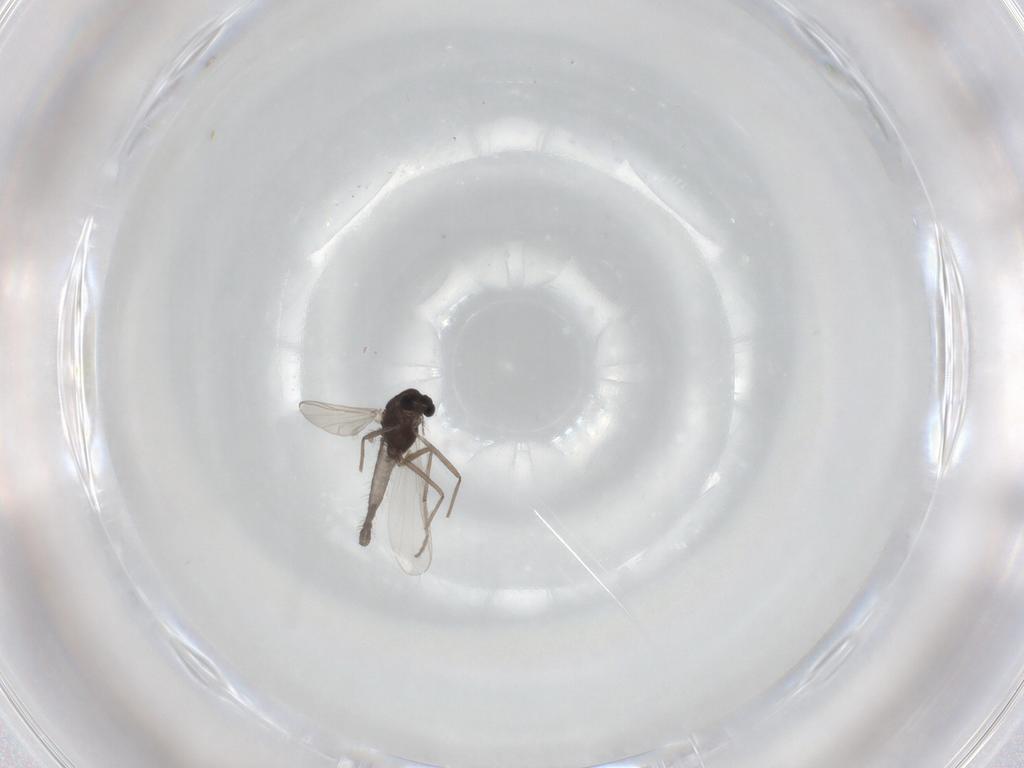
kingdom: Animalia
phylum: Arthropoda
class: Insecta
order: Diptera
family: Chironomidae
